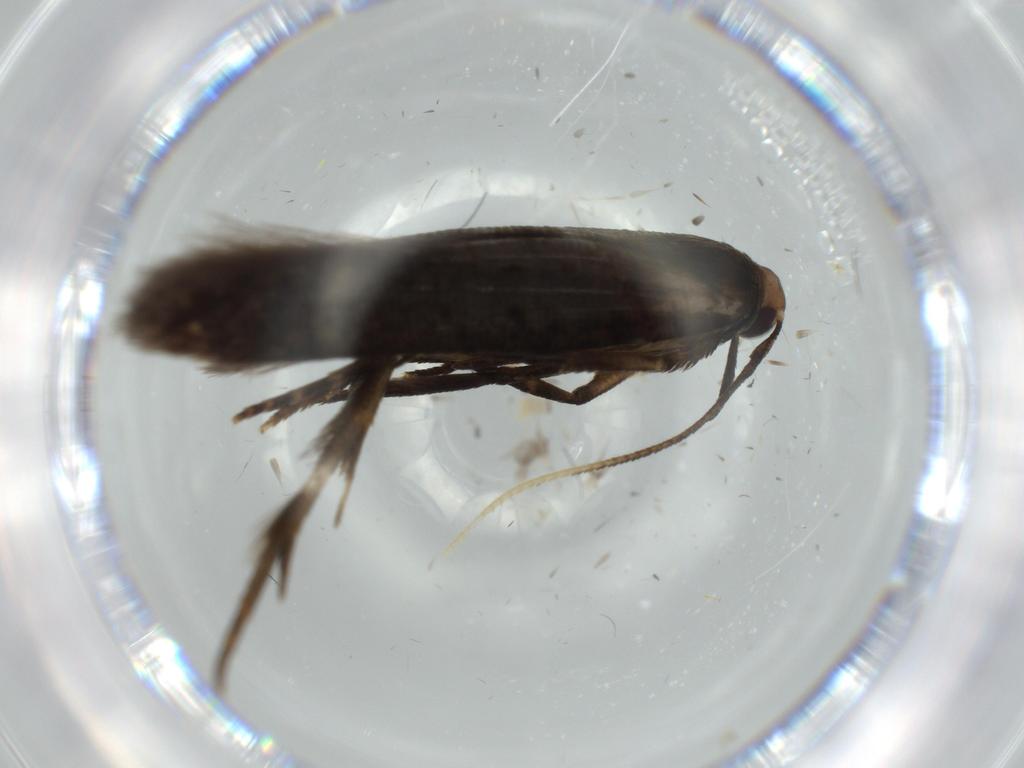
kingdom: Animalia
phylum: Arthropoda
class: Insecta
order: Lepidoptera
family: Autostichidae
